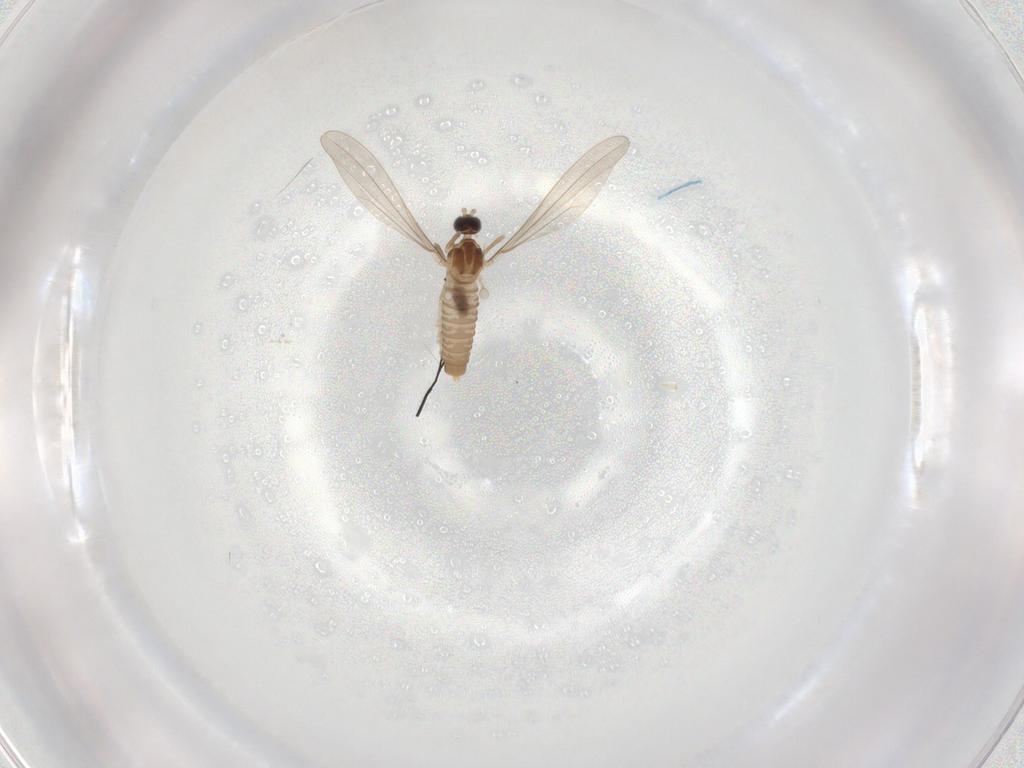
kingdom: Animalia
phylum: Arthropoda
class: Insecta
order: Diptera
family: Cecidomyiidae
